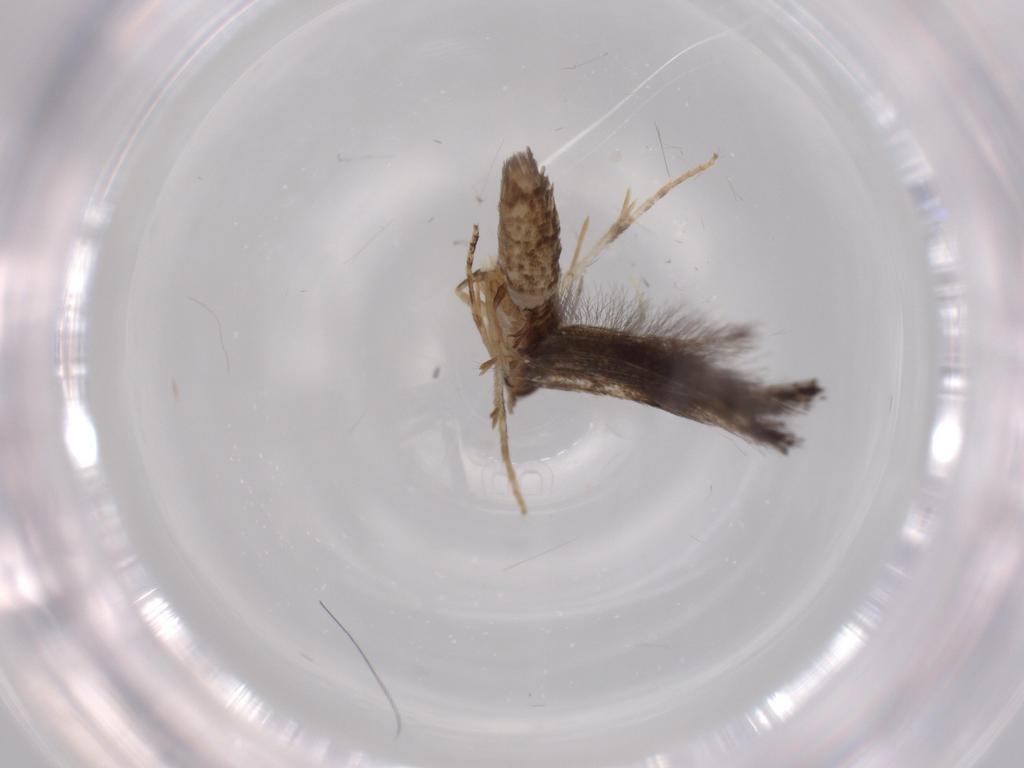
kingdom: Animalia
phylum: Arthropoda
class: Insecta
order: Lepidoptera
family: Elachistidae
